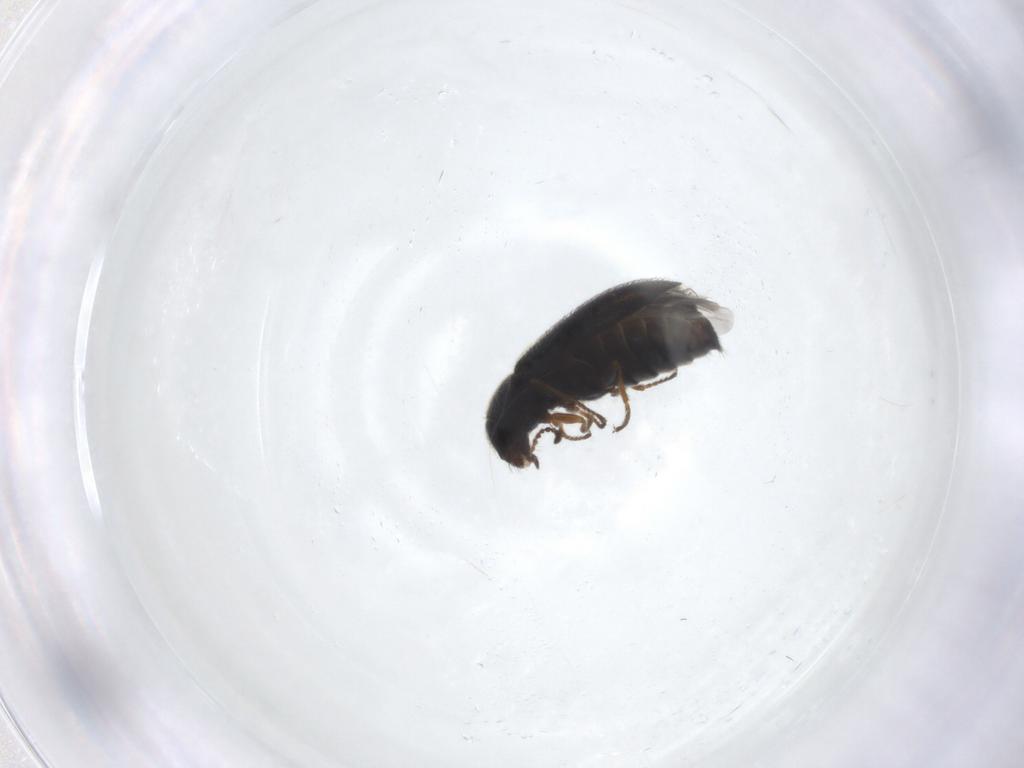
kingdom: Animalia
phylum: Arthropoda
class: Insecta
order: Coleoptera
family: Melyridae
